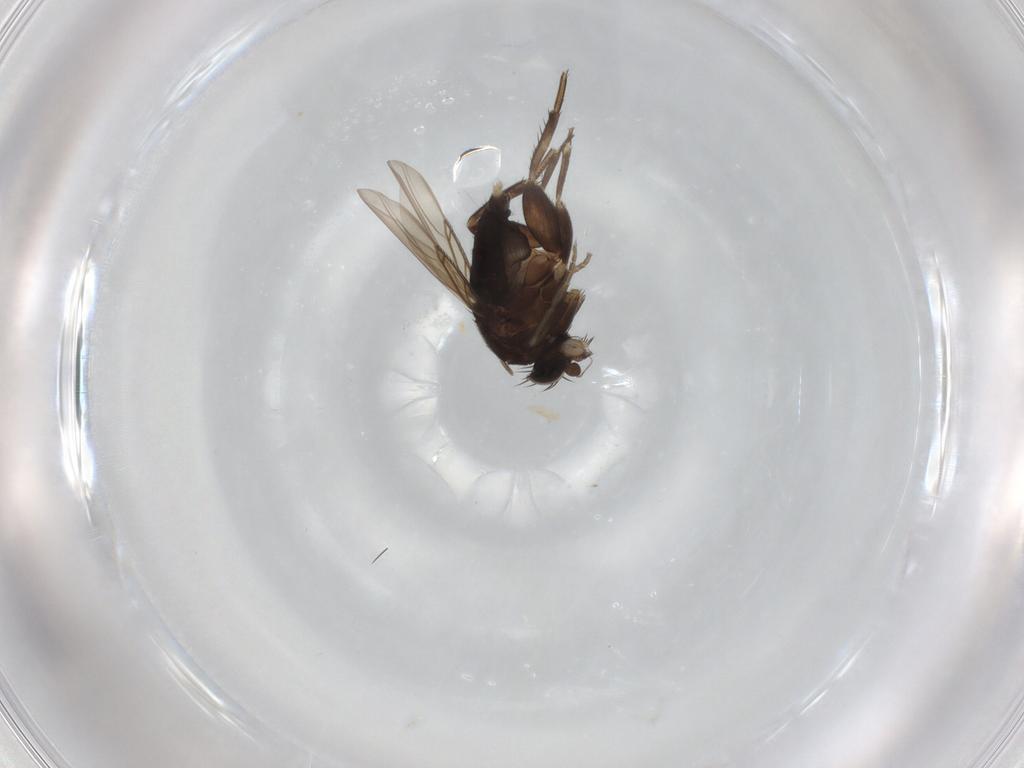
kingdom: Animalia
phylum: Arthropoda
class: Insecta
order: Diptera
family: Phoridae
